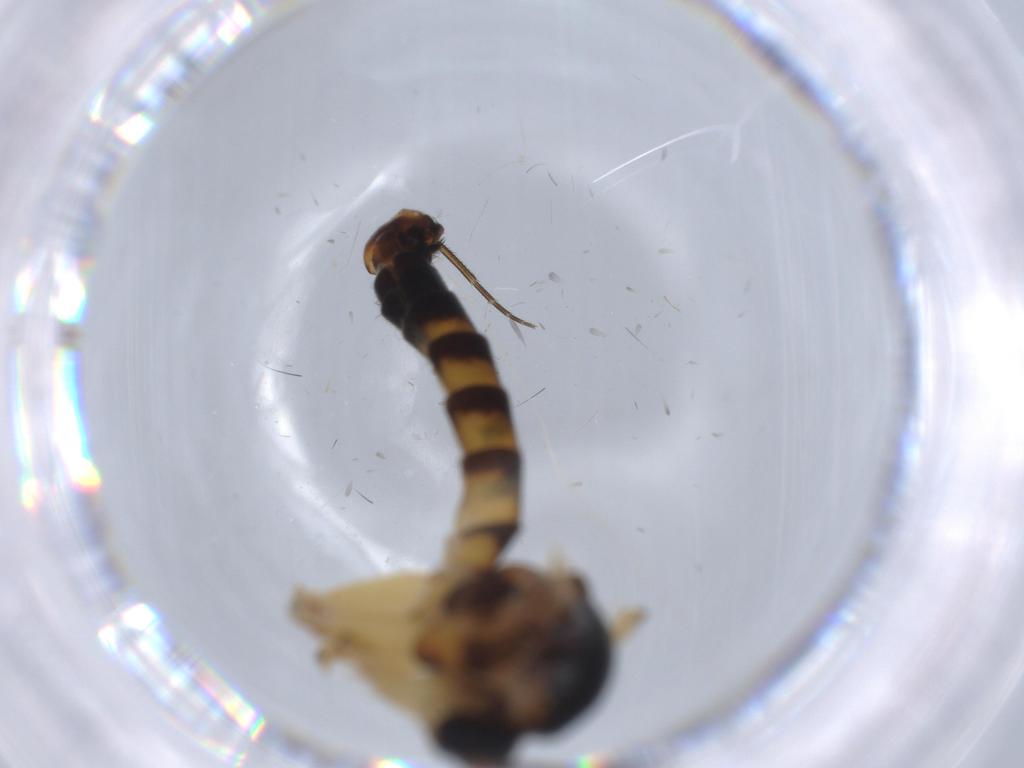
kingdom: Animalia
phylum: Arthropoda
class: Insecta
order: Diptera
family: Phoridae
